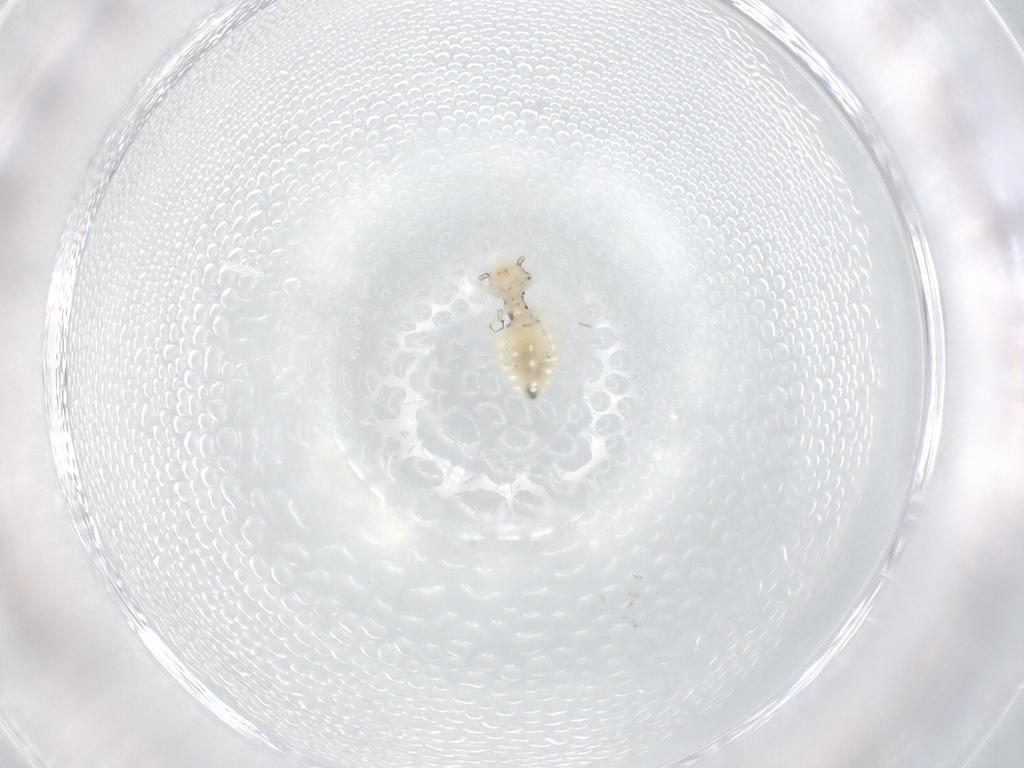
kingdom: Animalia
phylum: Arthropoda
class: Insecta
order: Psocodea
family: Philotarsidae
